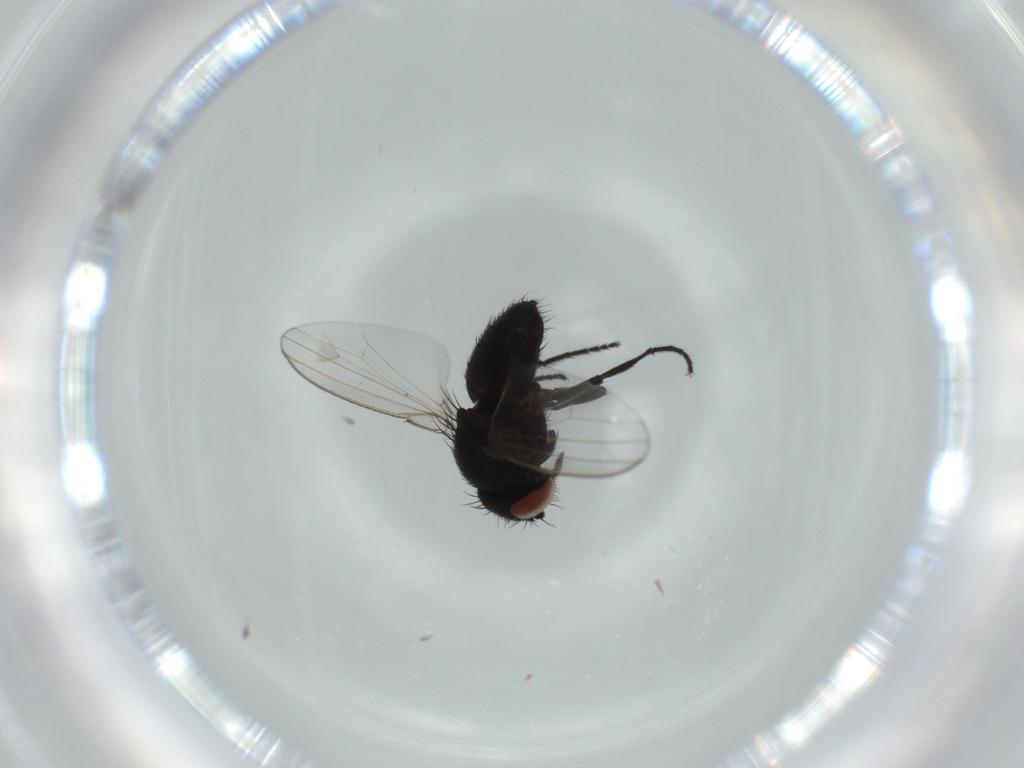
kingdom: Animalia
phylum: Arthropoda
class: Insecta
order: Diptera
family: Milichiidae
